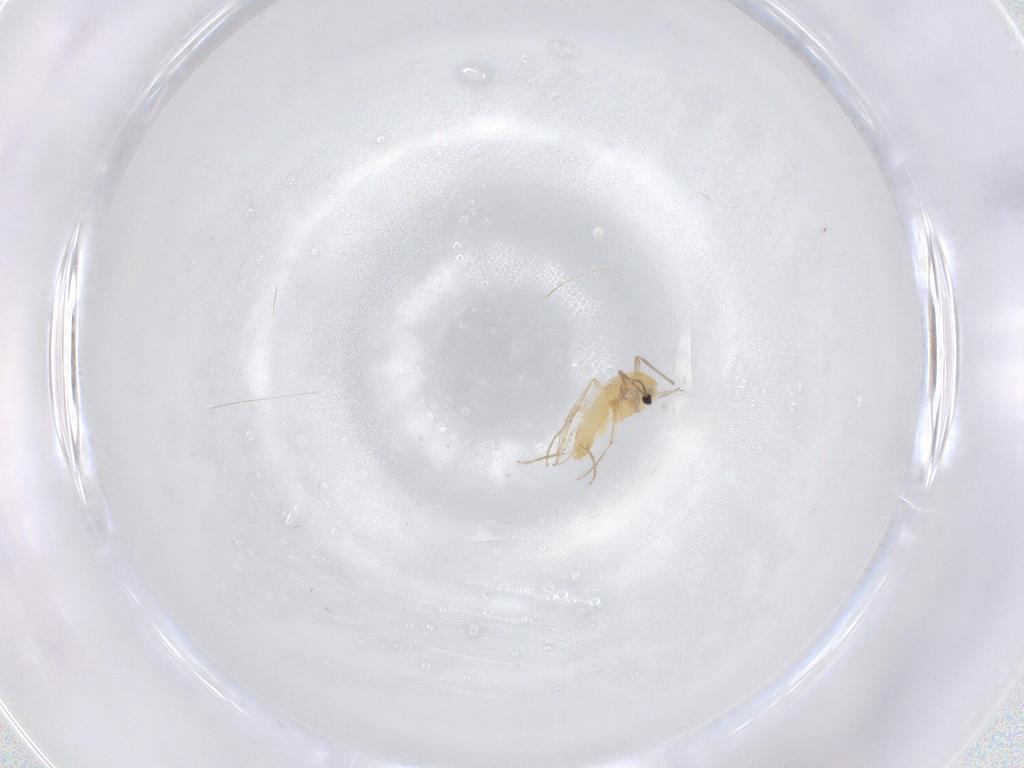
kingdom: Animalia
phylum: Arthropoda
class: Insecta
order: Diptera
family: Chironomidae
